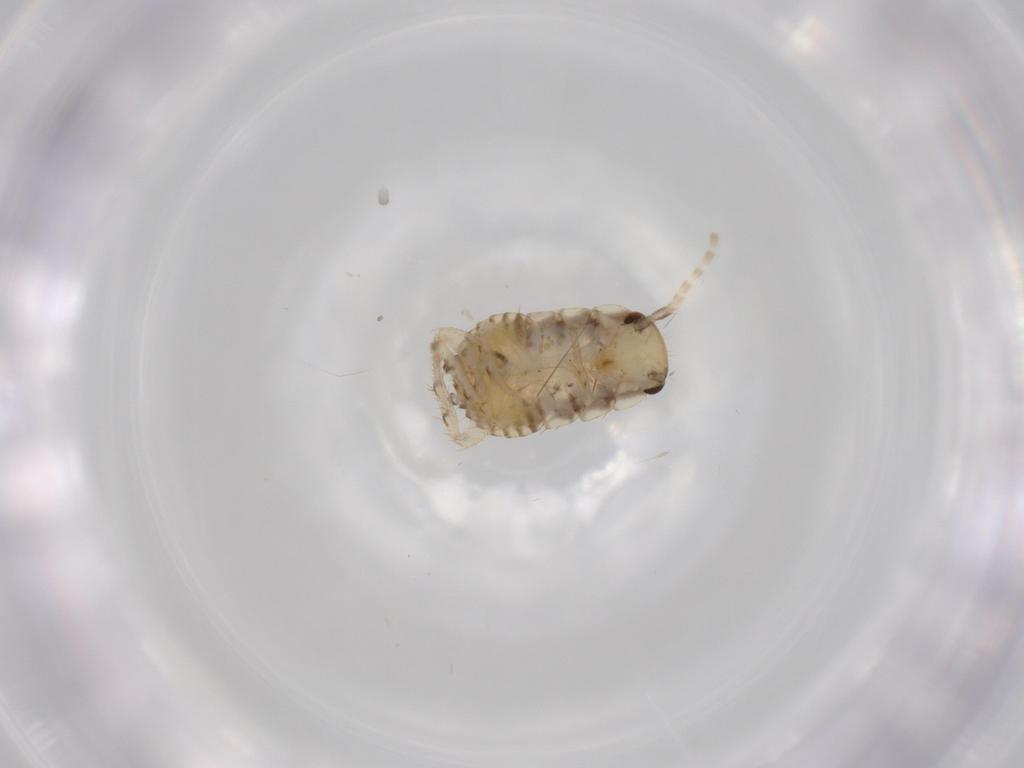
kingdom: Animalia
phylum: Arthropoda
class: Insecta
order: Blattodea
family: Ectobiidae
